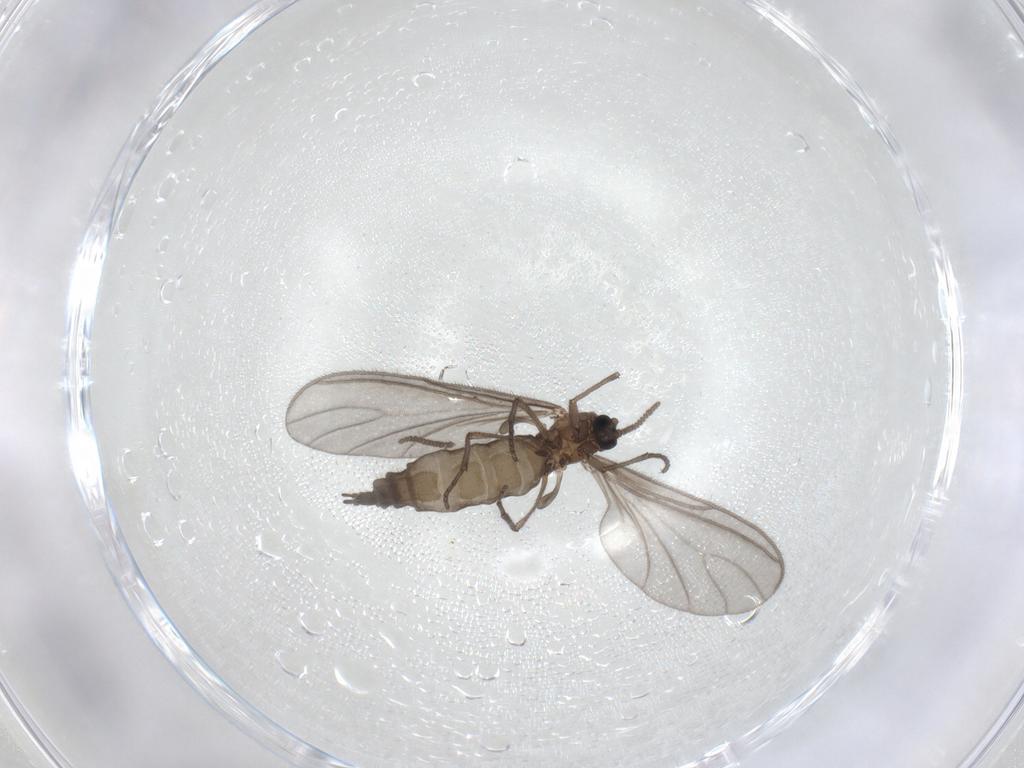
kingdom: Animalia
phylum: Arthropoda
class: Insecta
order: Diptera
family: Sciaridae
